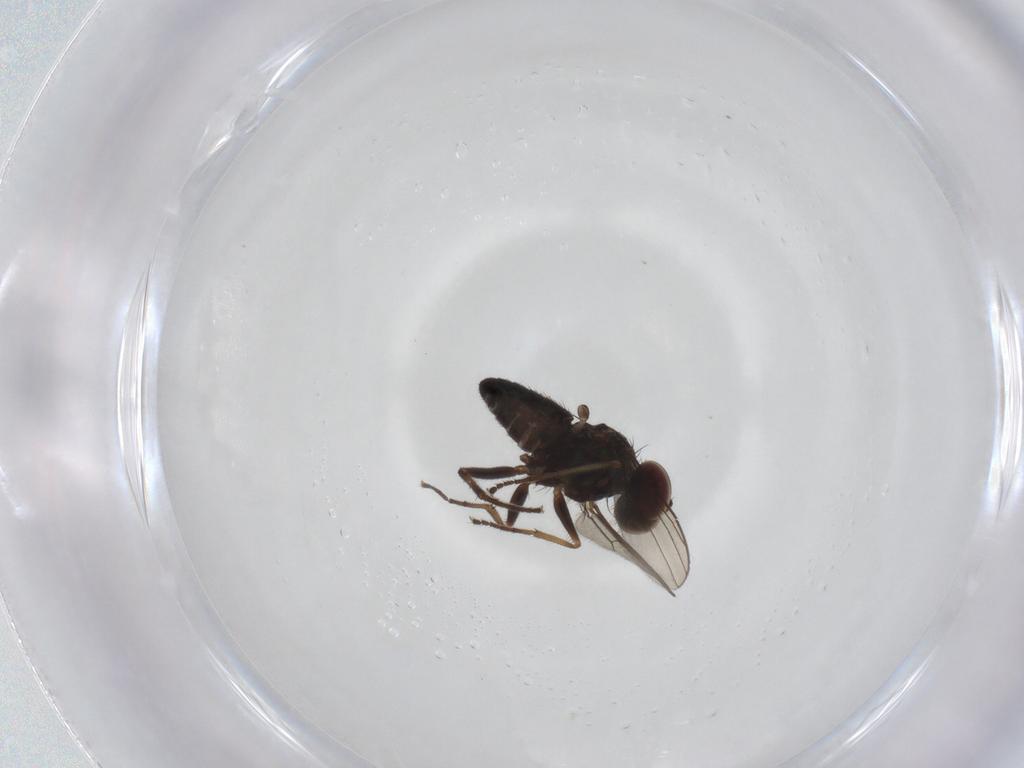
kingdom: Animalia
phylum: Arthropoda
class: Insecta
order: Diptera
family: Dolichopodidae
